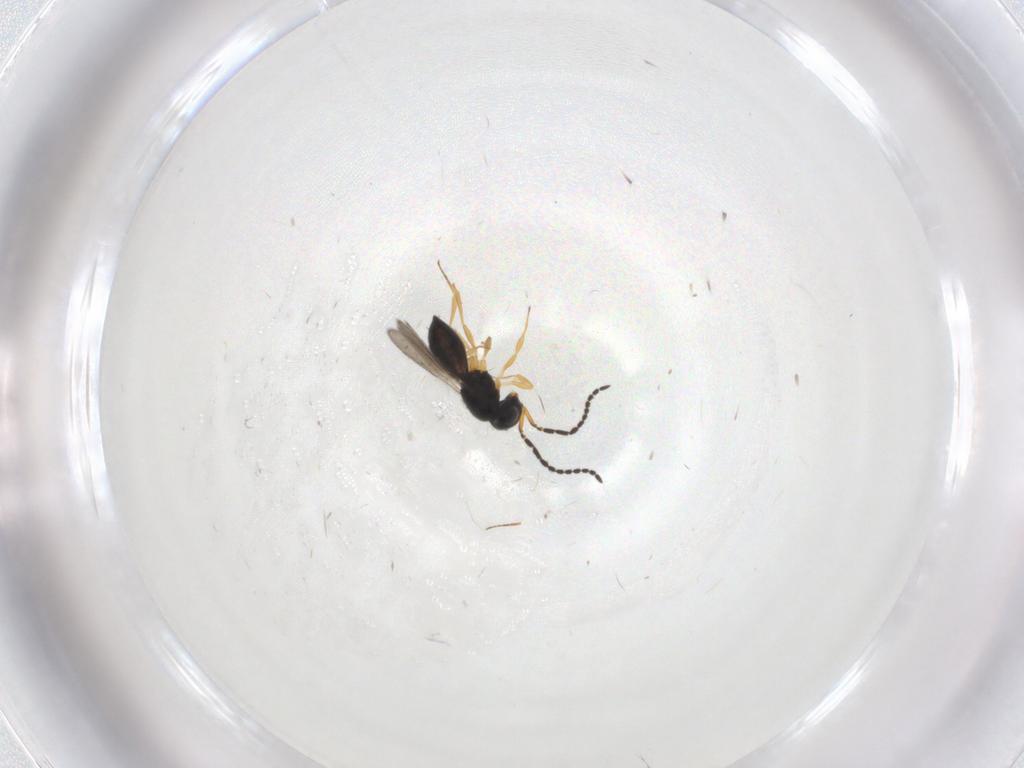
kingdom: Animalia
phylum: Arthropoda
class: Insecta
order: Hymenoptera
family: Scelionidae
